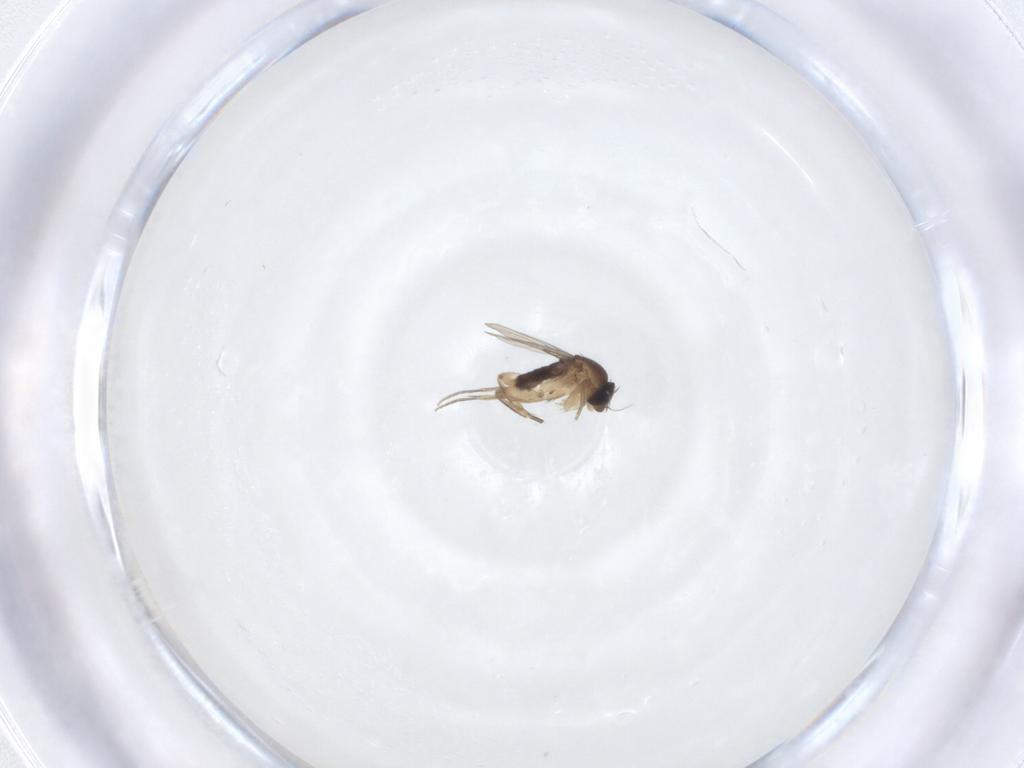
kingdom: Animalia
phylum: Arthropoda
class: Insecta
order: Diptera
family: Phoridae
